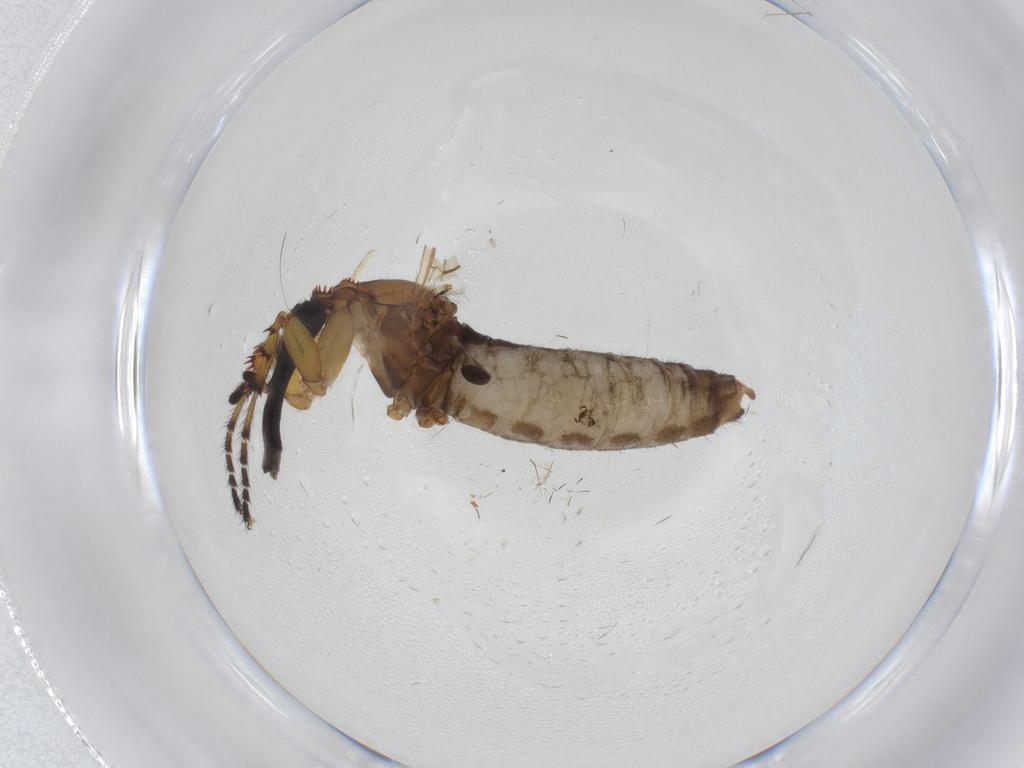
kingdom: Animalia
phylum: Arthropoda
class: Insecta
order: Diptera
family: Bibionidae
